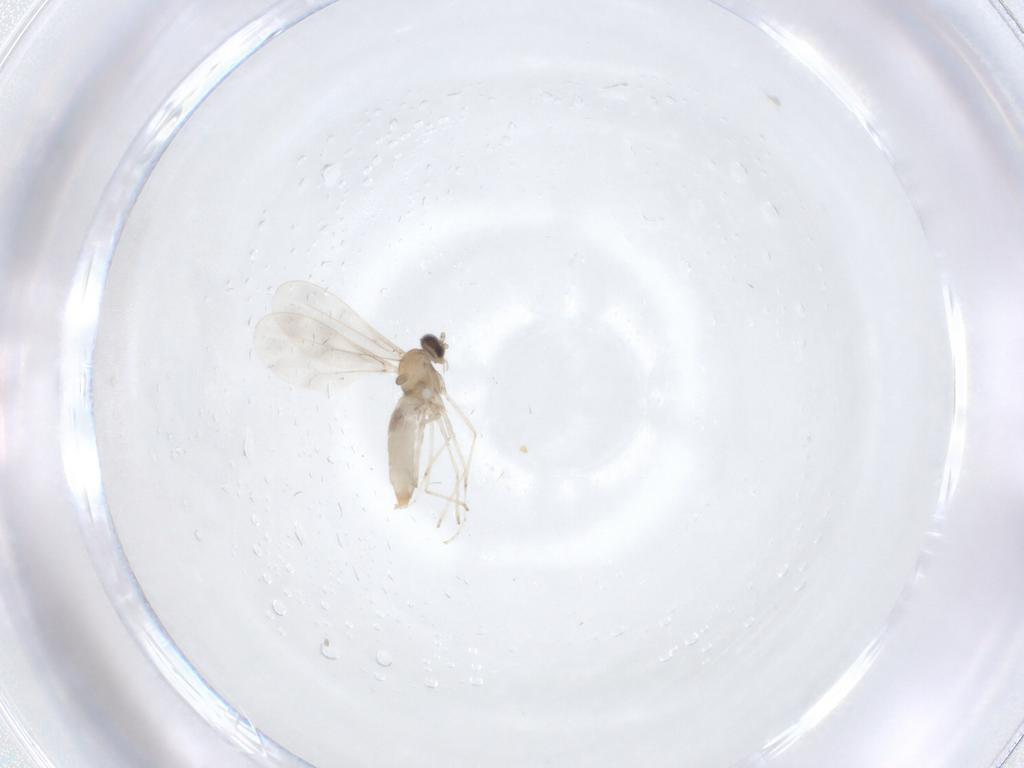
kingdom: Animalia
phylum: Arthropoda
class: Insecta
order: Diptera
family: Cecidomyiidae
